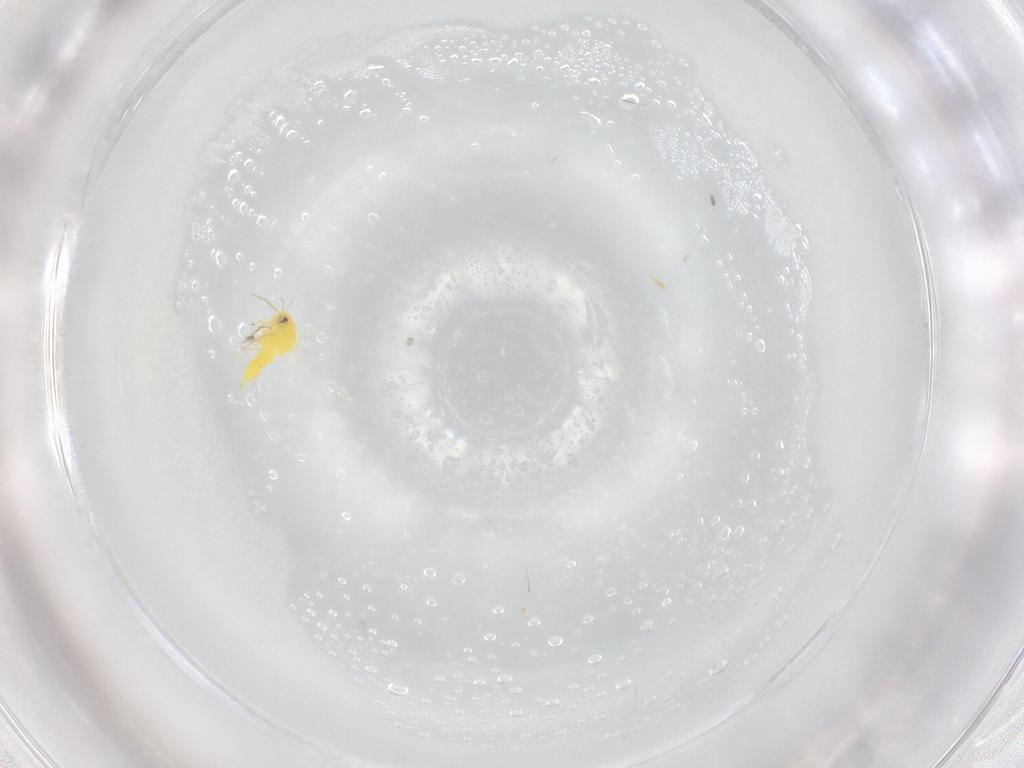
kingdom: Animalia
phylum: Arthropoda
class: Insecta
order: Hemiptera
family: Aleyrodidae
